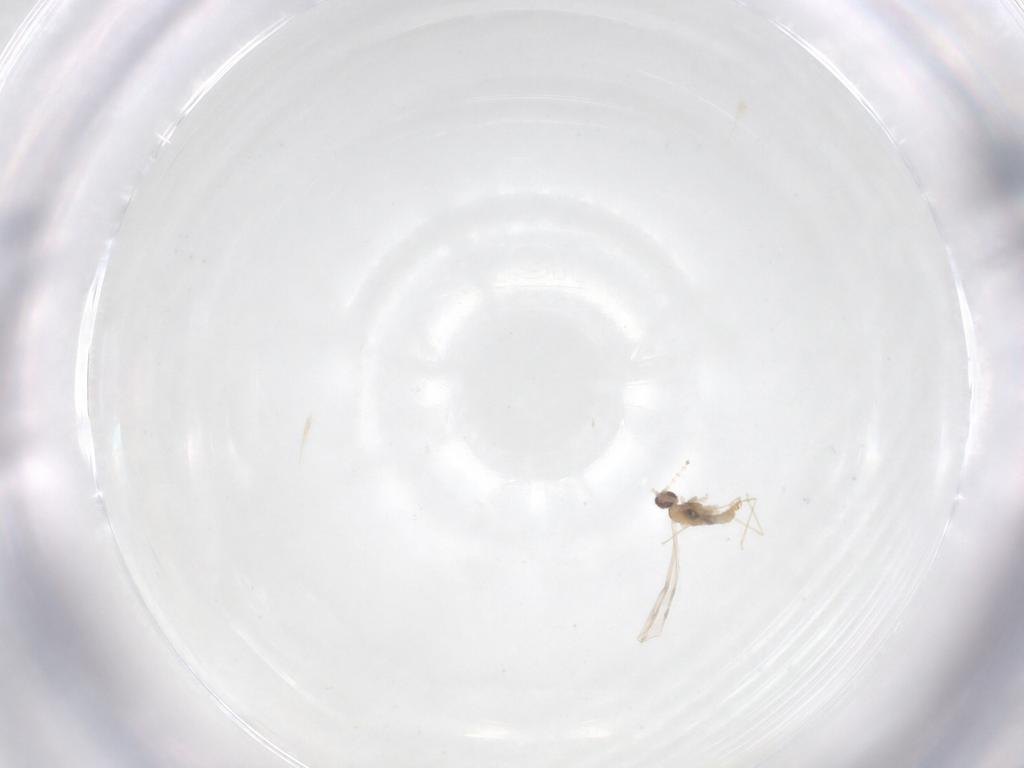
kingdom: Animalia
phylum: Arthropoda
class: Insecta
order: Diptera
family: Cecidomyiidae
